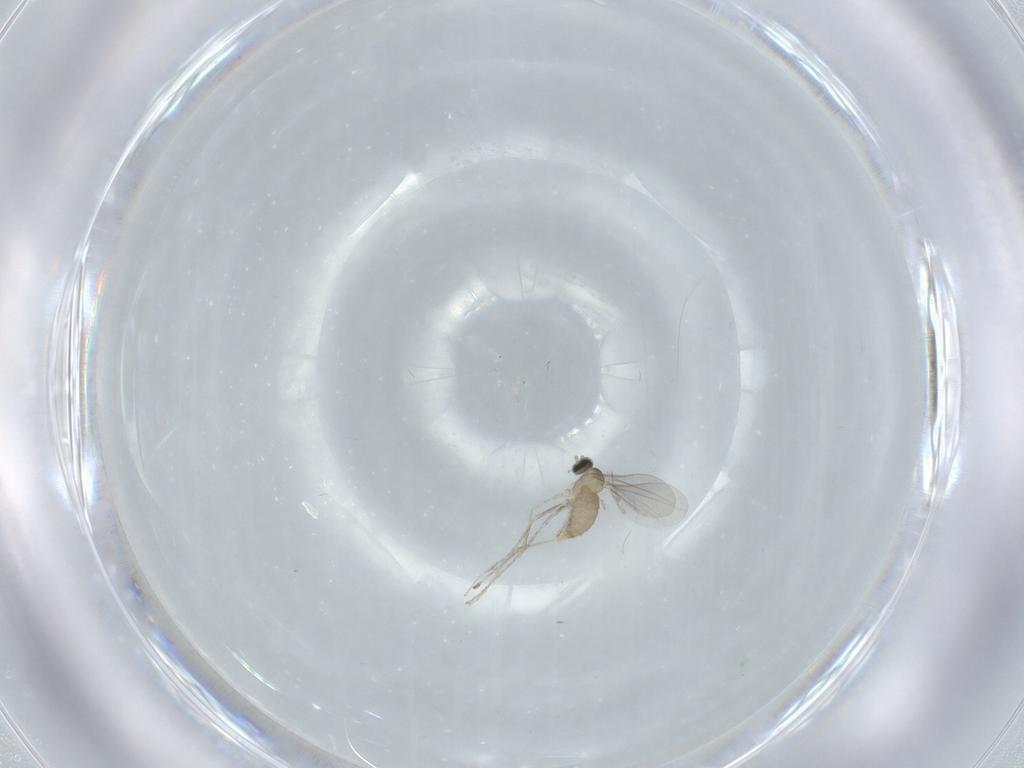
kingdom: Animalia
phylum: Arthropoda
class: Insecta
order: Diptera
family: Cecidomyiidae
